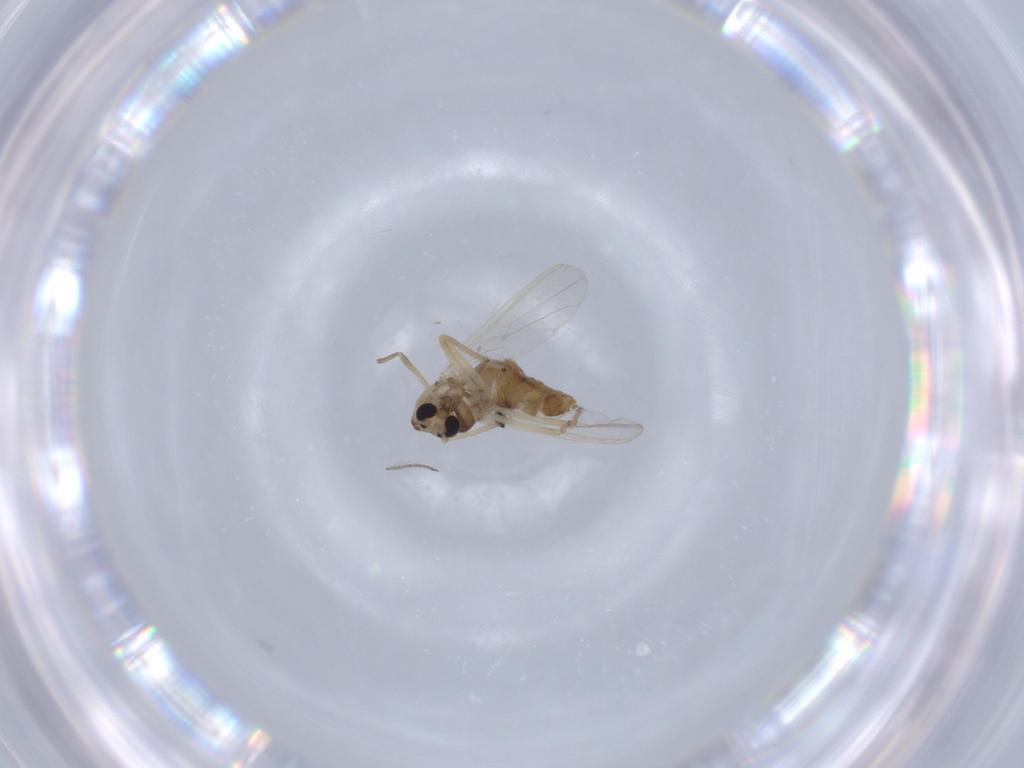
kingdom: Animalia
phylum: Arthropoda
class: Insecta
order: Diptera
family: Chironomidae
